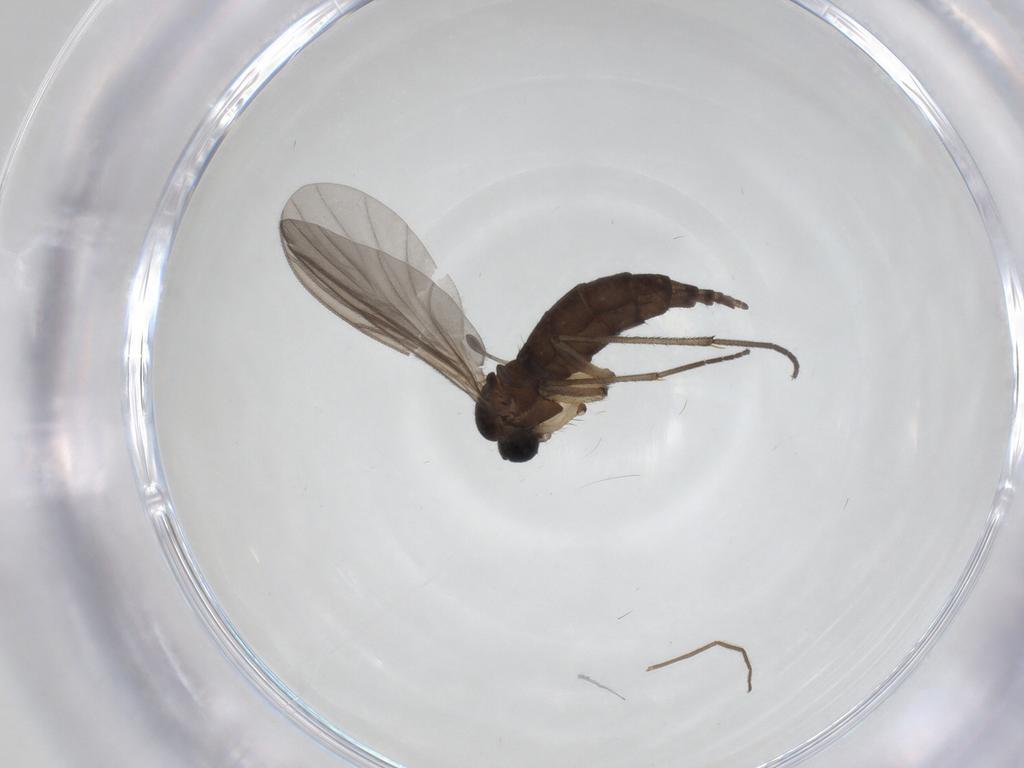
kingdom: Animalia
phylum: Arthropoda
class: Insecta
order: Diptera
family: Sciaridae
